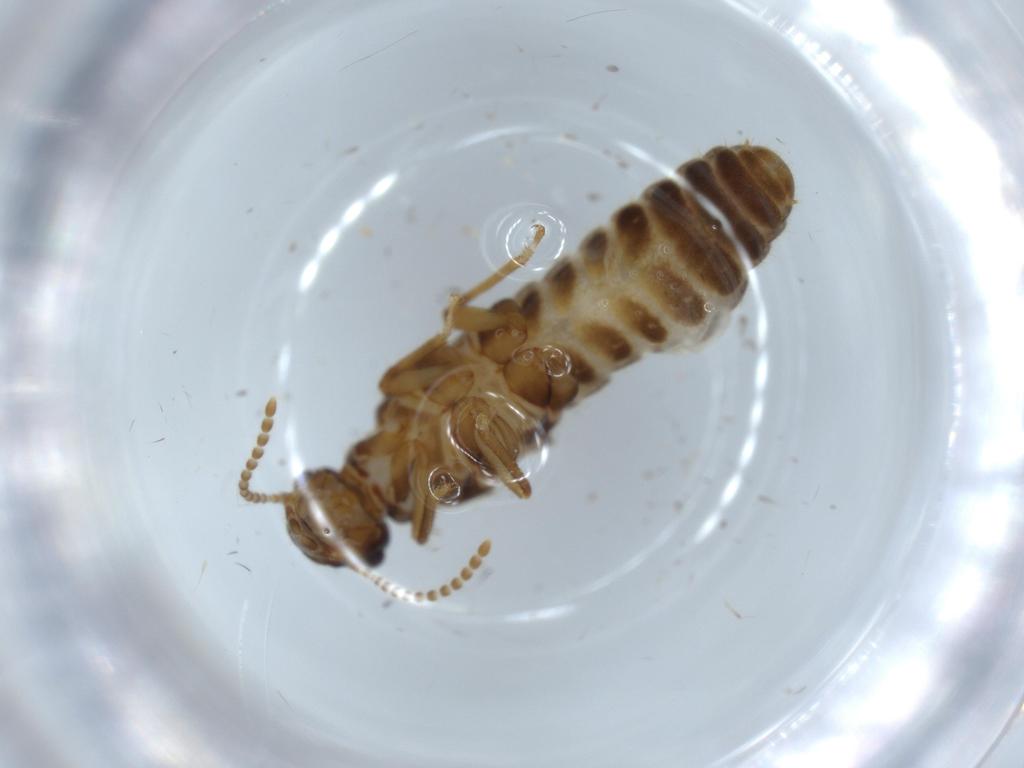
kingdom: Animalia
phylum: Arthropoda
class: Insecta
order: Blattodea
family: Termitidae
